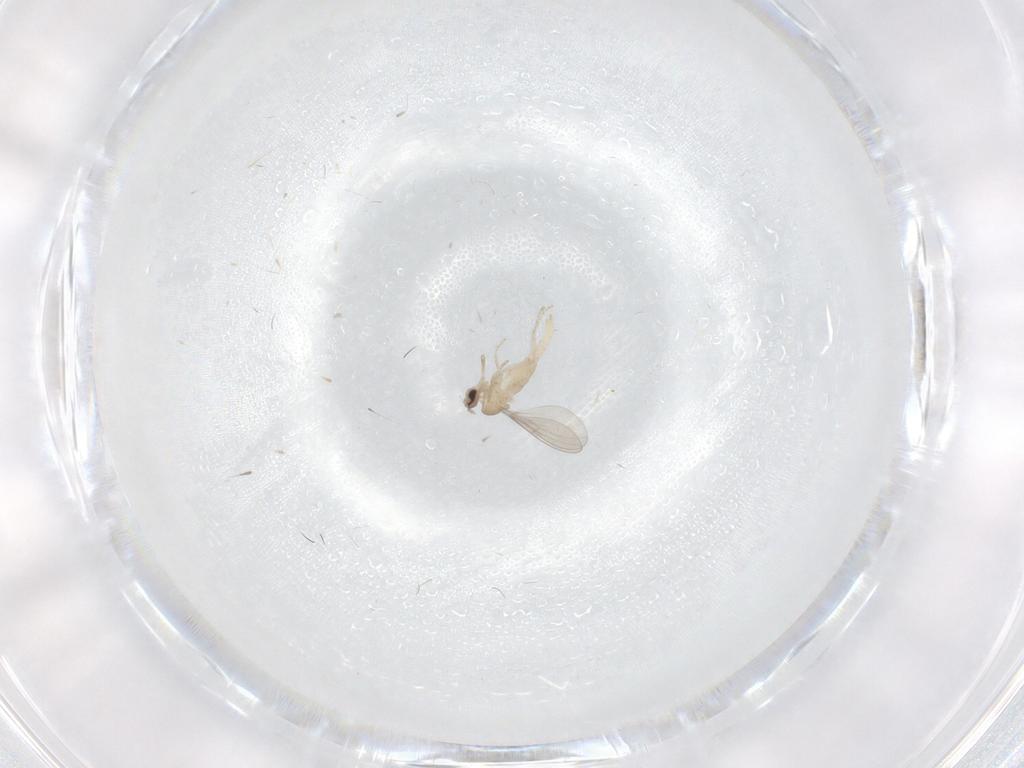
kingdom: Animalia
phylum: Arthropoda
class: Insecta
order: Diptera
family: Cecidomyiidae
